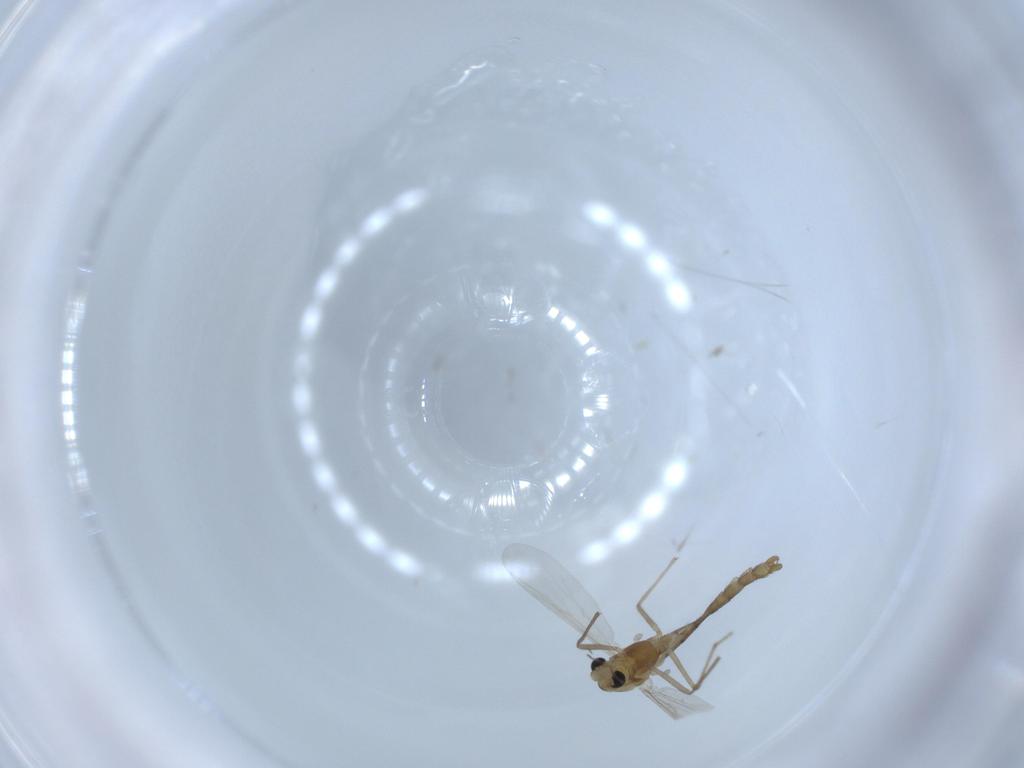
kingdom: Animalia
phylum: Arthropoda
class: Insecta
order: Diptera
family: Chironomidae
